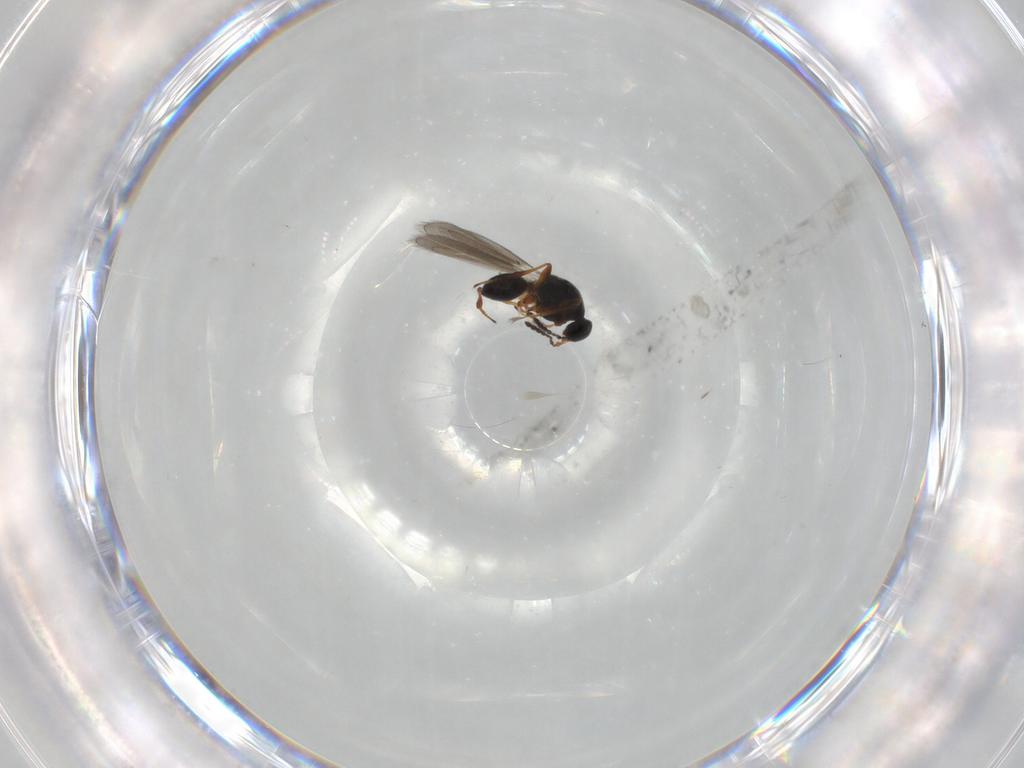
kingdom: Animalia
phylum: Arthropoda
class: Insecta
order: Hymenoptera
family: Platygastridae
